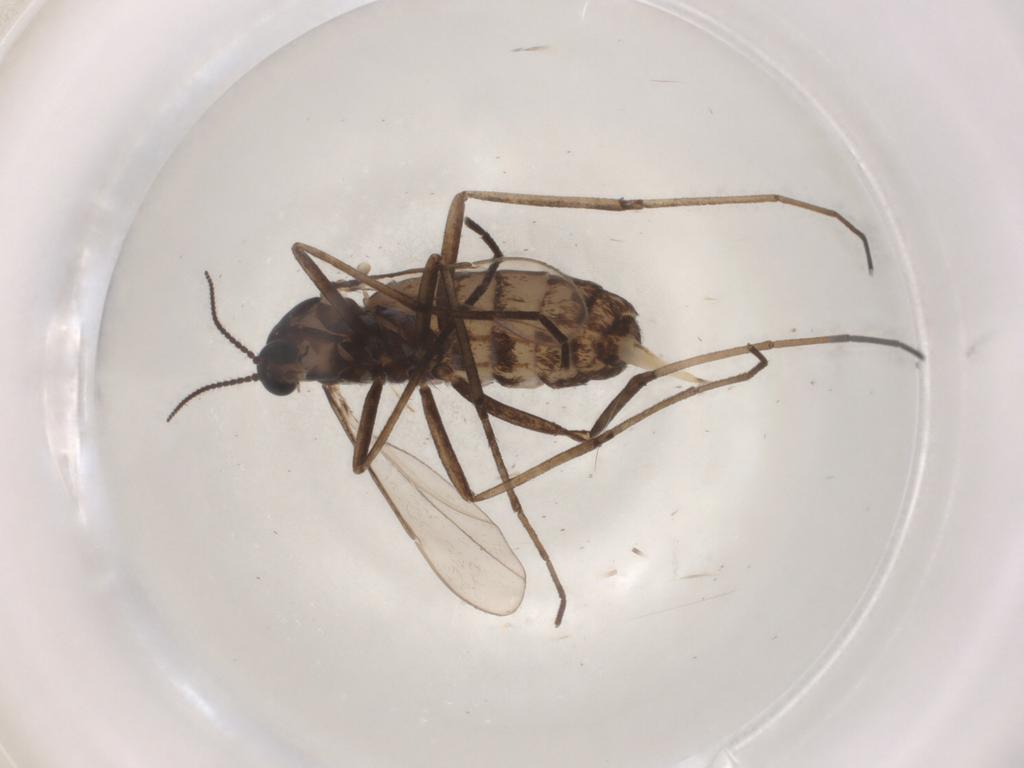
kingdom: Animalia
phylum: Arthropoda
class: Insecta
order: Diptera
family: Cecidomyiidae
